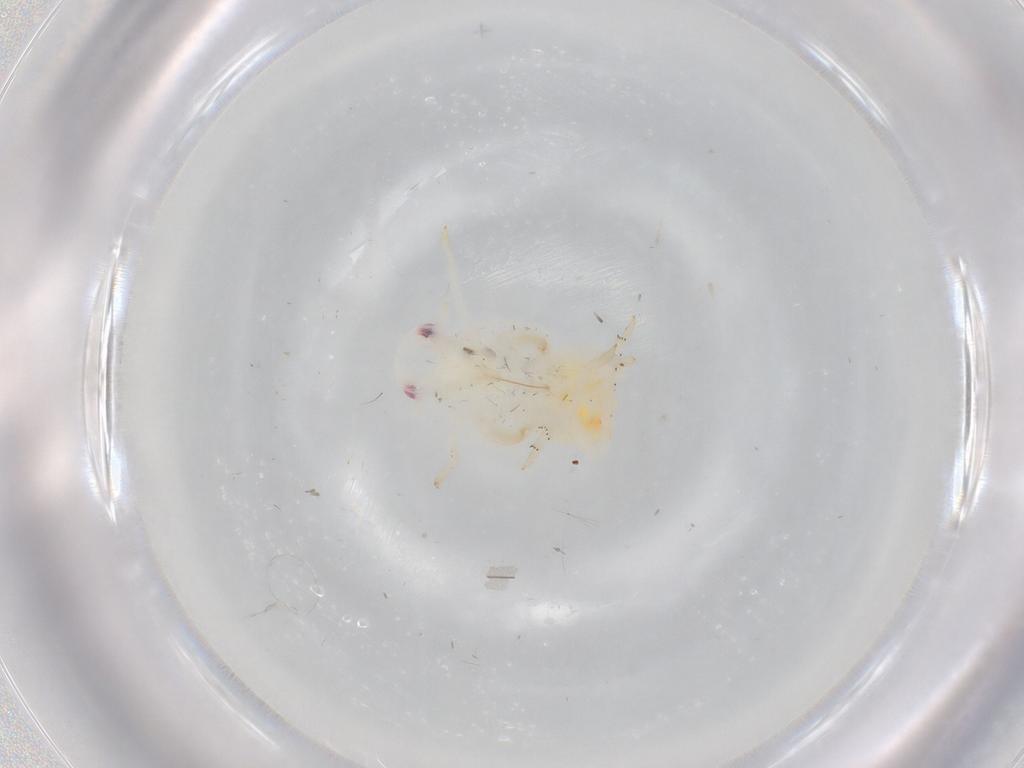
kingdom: Animalia
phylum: Arthropoda
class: Insecta
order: Hemiptera
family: Flatidae
